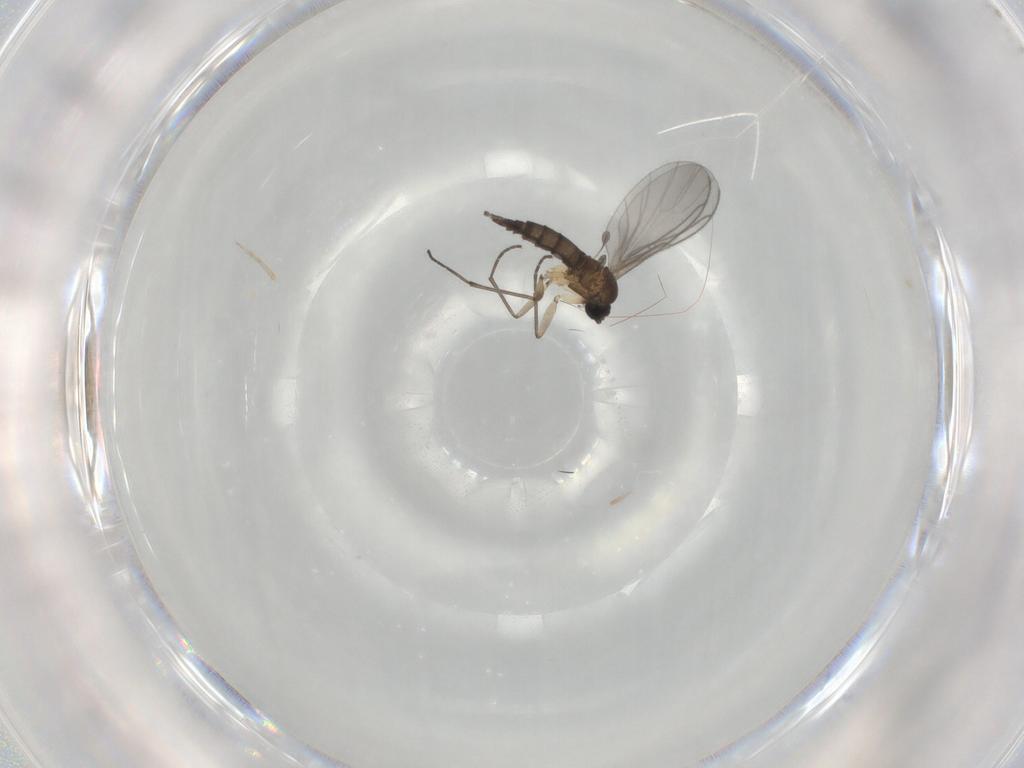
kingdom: Animalia
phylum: Arthropoda
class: Insecta
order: Diptera
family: Sciaridae
